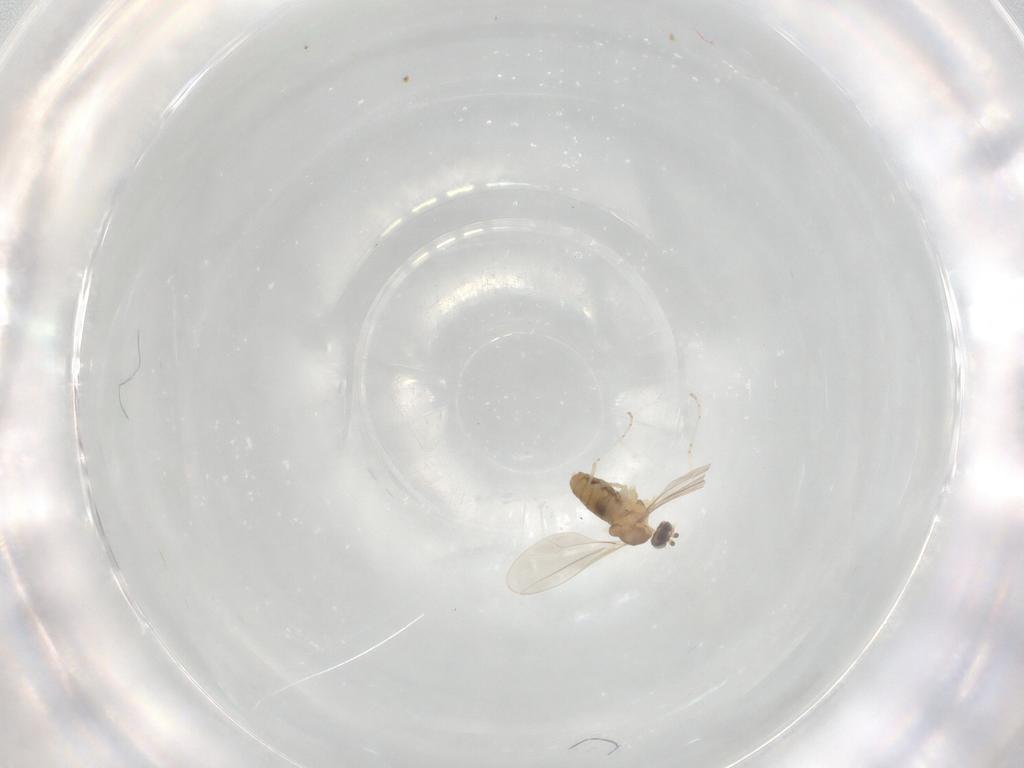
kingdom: Animalia
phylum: Arthropoda
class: Insecta
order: Diptera
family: Cecidomyiidae
